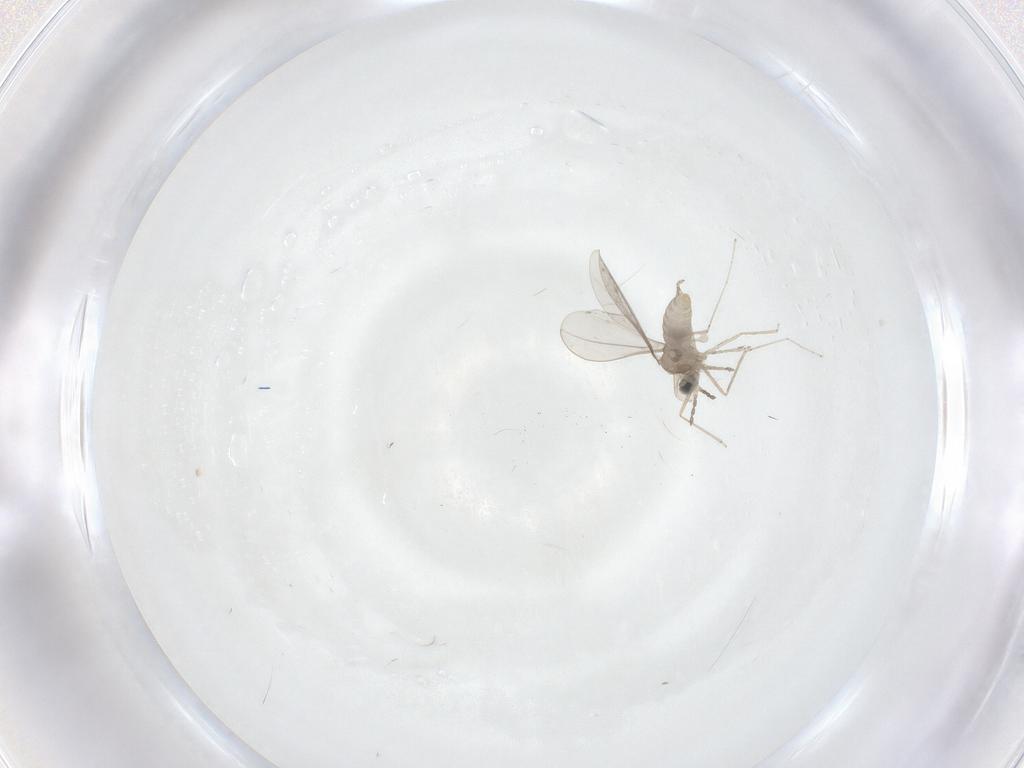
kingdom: Animalia
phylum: Arthropoda
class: Insecta
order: Diptera
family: Cecidomyiidae
